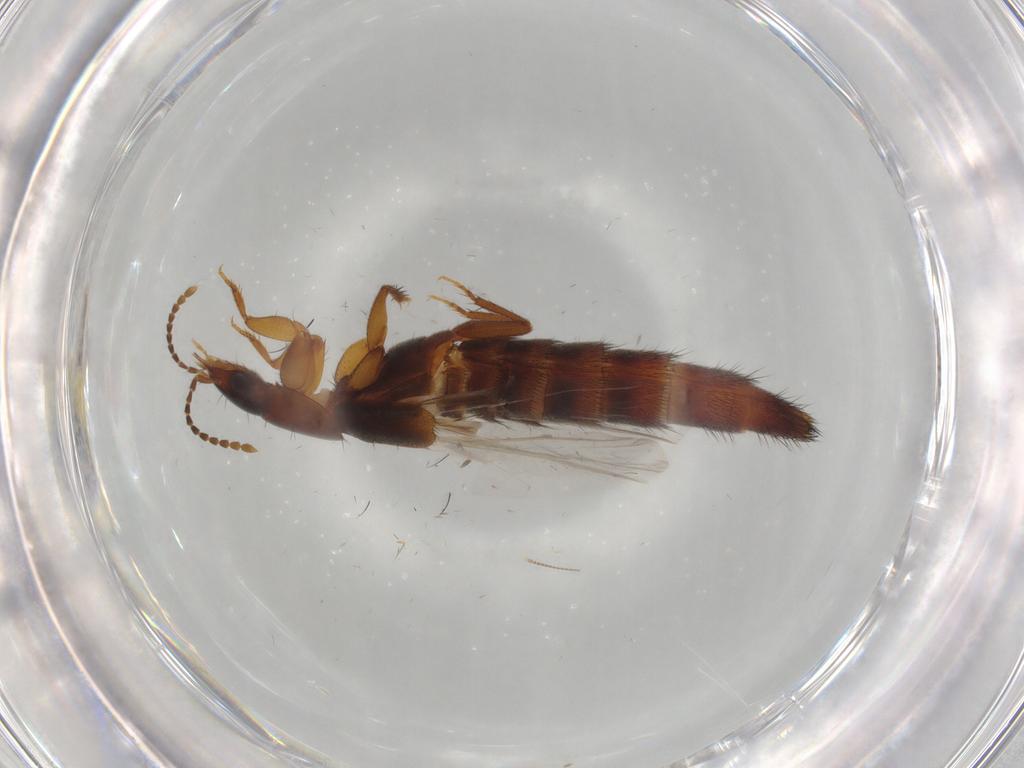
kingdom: Animalia
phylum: Arthropoda
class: Insecta
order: Coleoptera
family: Staphylinidae
